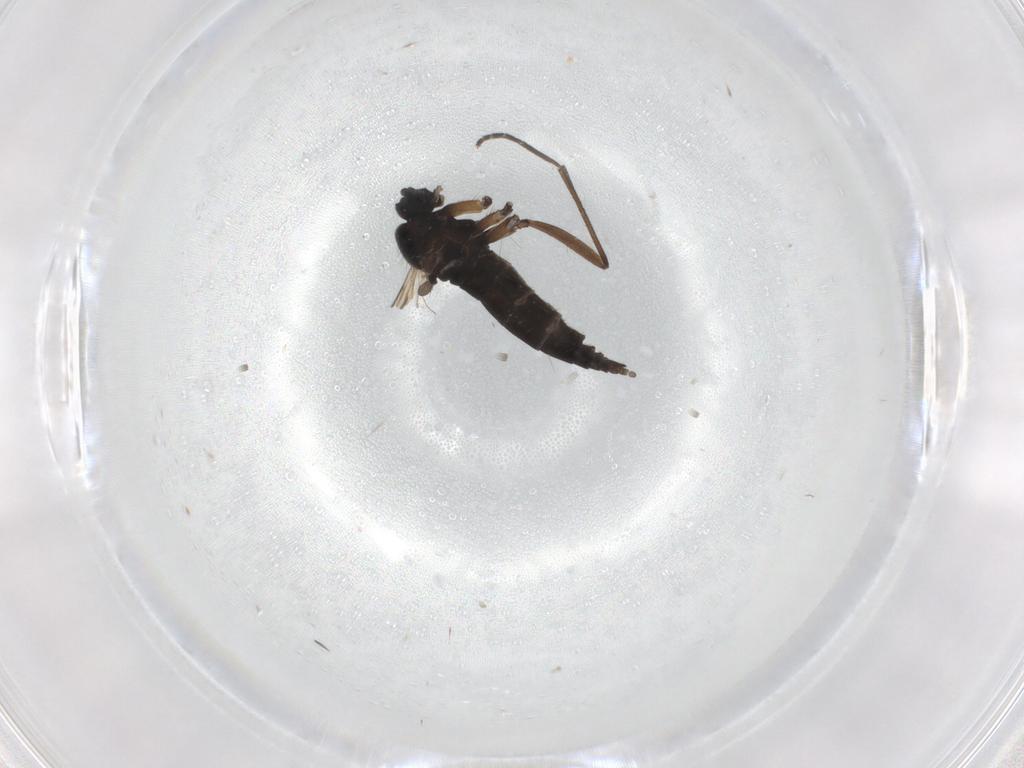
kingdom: Animalia
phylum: Arthropoda
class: Insecta
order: Diptera
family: Sciaridae
